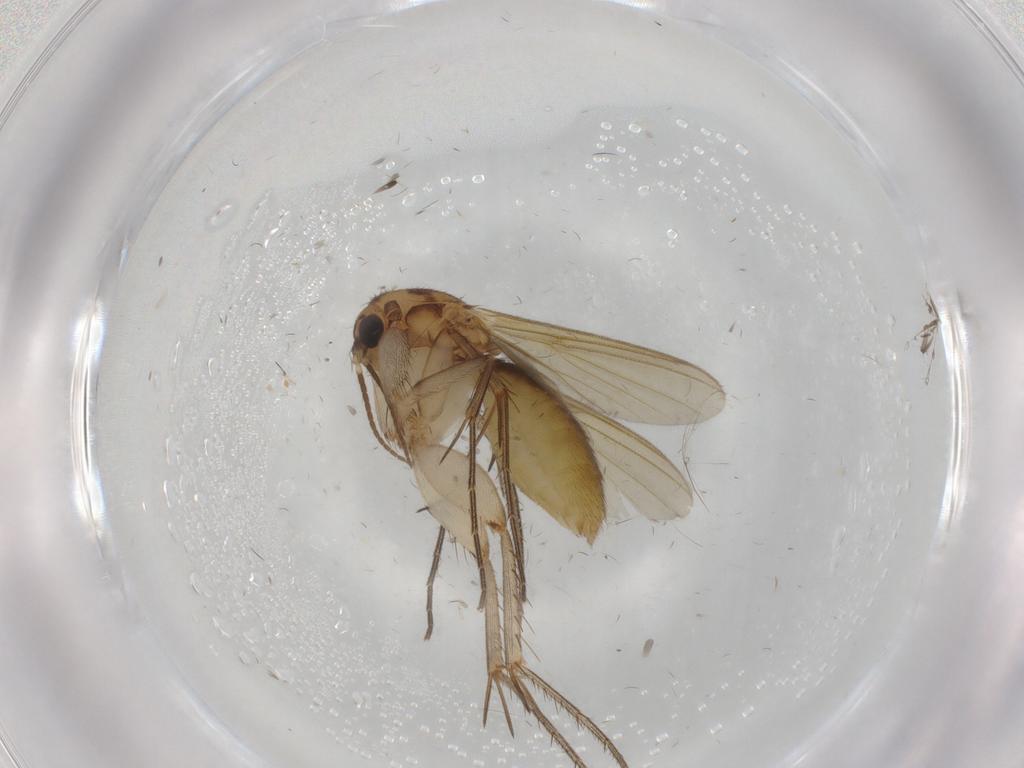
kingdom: Animalia
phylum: Arthropoda
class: Insecta
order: Diptera
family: Mycetophilidae
